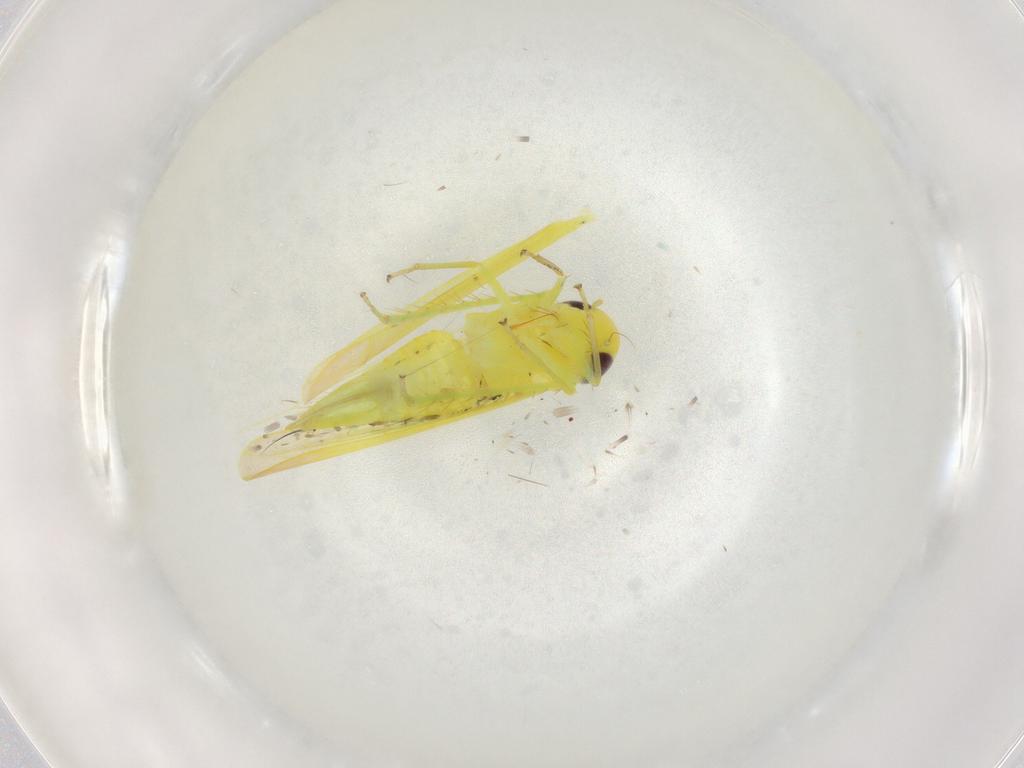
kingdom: Animalia
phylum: Arthropoda
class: Insecta
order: Hemiptera
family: Cicadellidae
